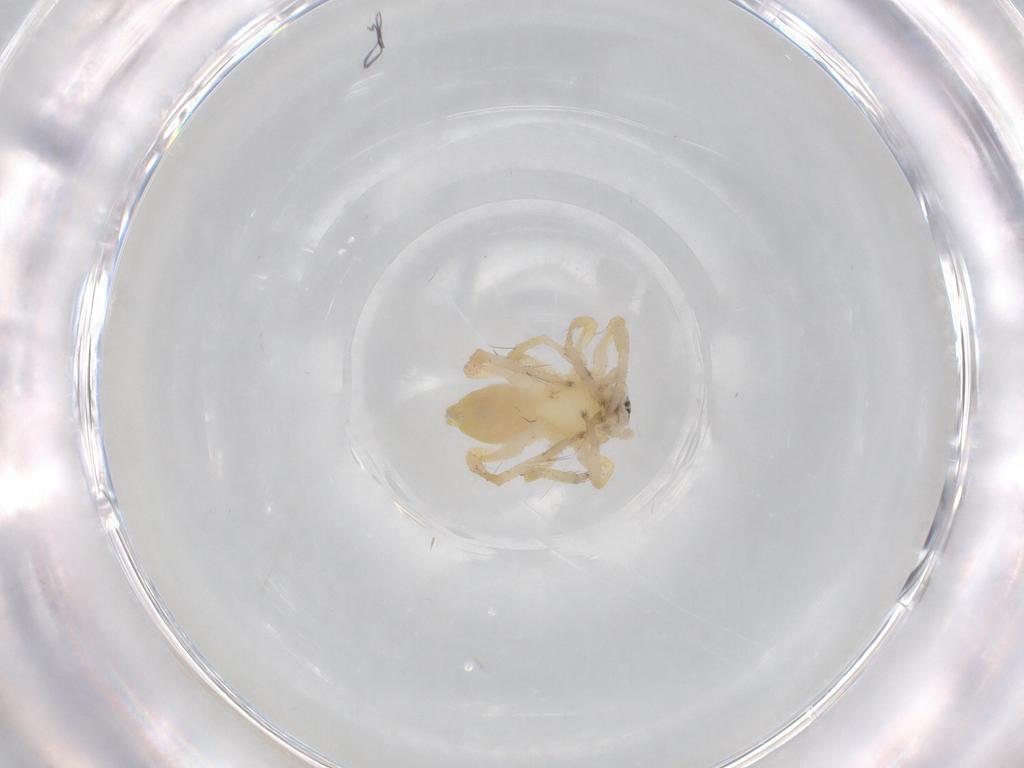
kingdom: Animalia
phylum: Arthropoda
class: Arachnida
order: Araneae
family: Anyphaenidae
